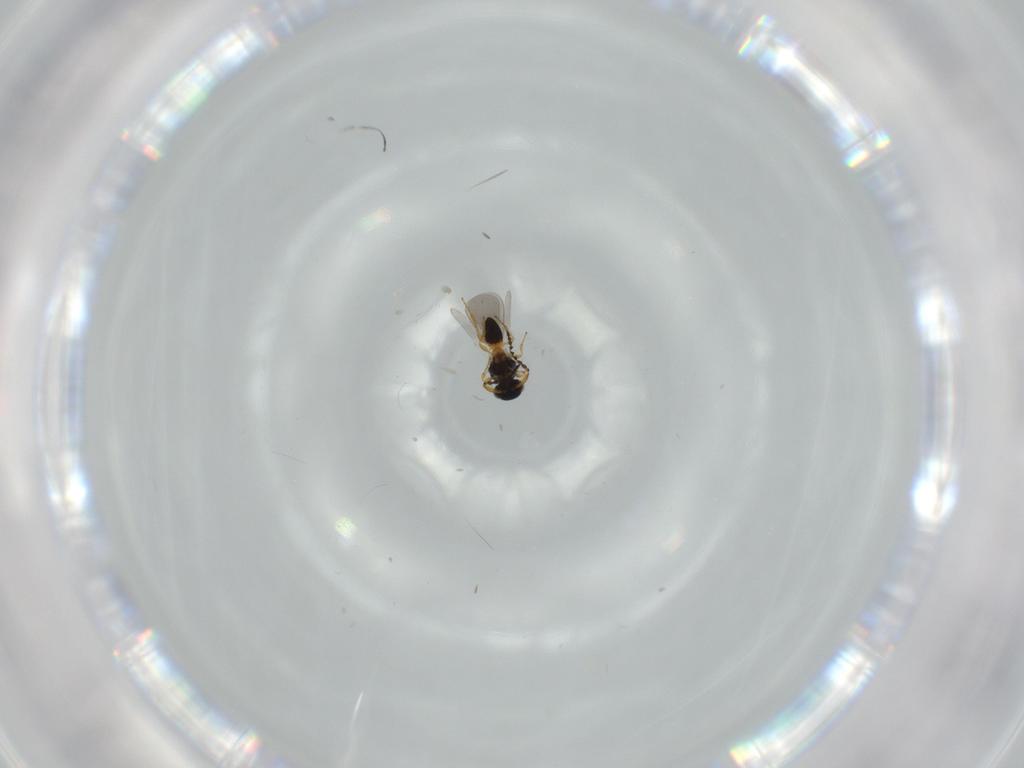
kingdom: Animalia
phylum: Arthropoda
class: Insecta
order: Hymenoptera
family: Platygastridae
